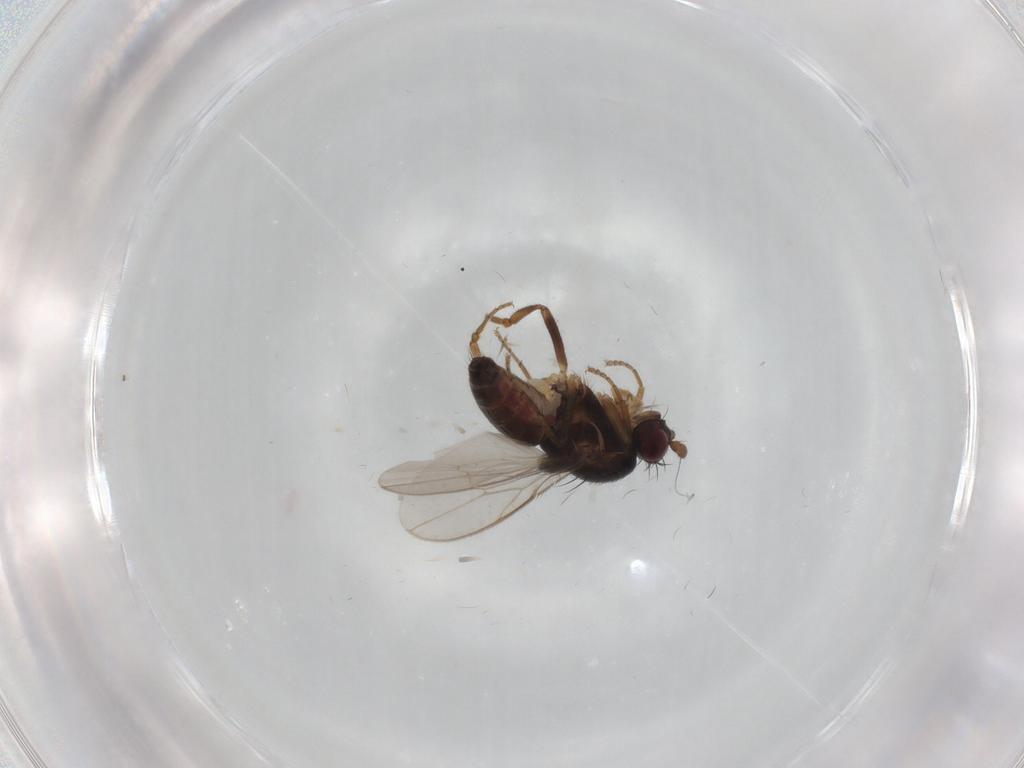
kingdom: Animalia
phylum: Arthropoda
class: Insecta
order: Diptera
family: Sphaeroceridae
